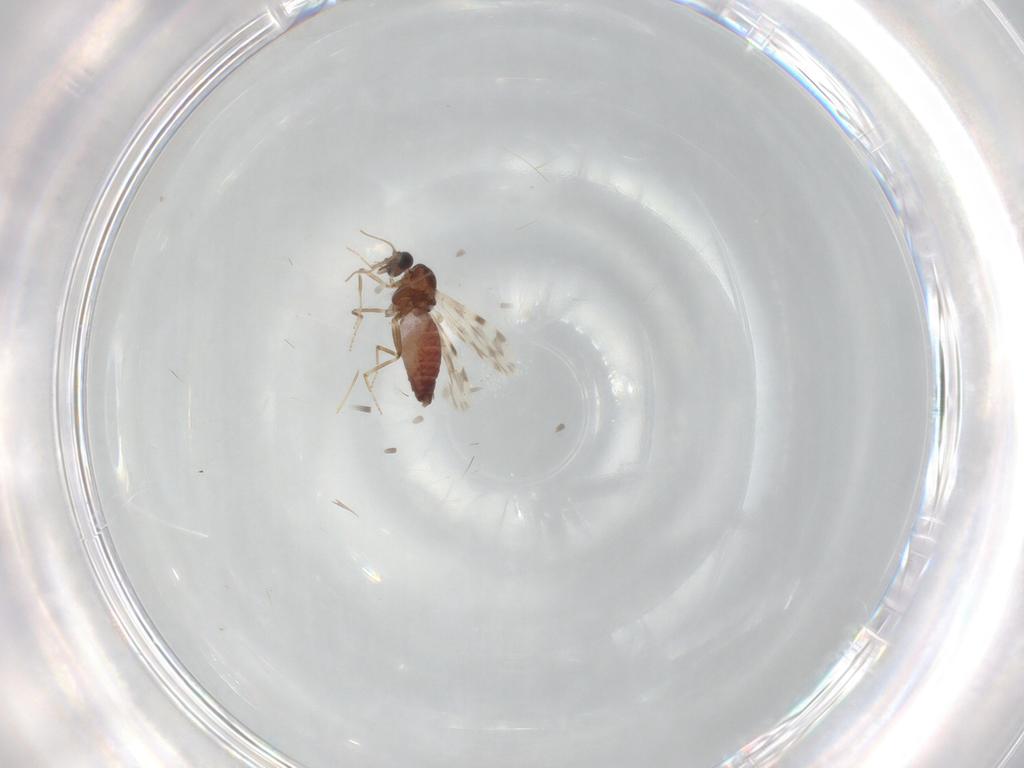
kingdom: Animalia
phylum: Arthropoda
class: Insecta
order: Diptera
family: Ceratopogonidae
